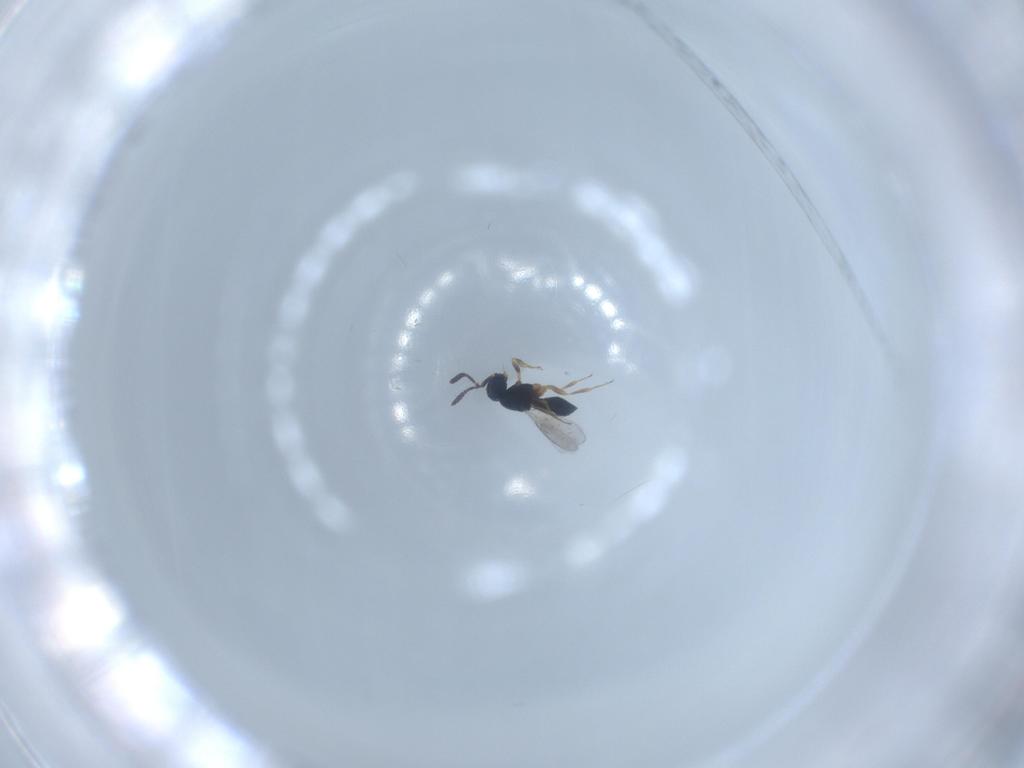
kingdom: Animalia
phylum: Arthropoda
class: Insecta
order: Hymenoptera
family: Scelionidae
